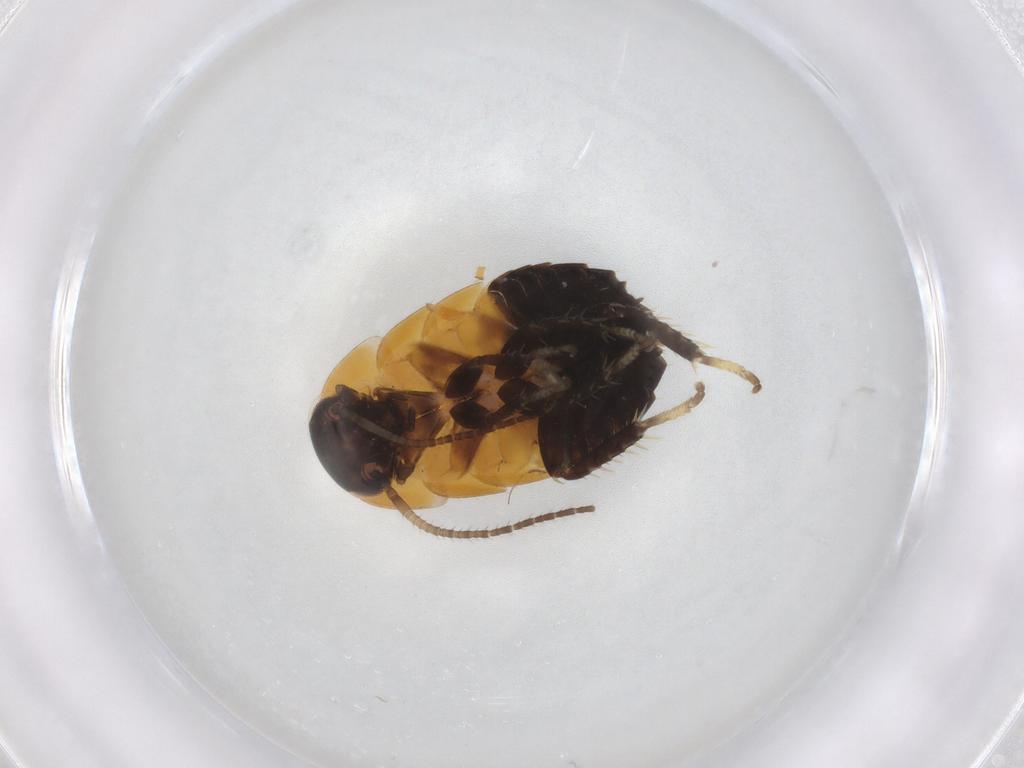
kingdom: Animalia
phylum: Arthropoda
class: Insecta
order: Blattodea
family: Pseudophyllodromiidae
